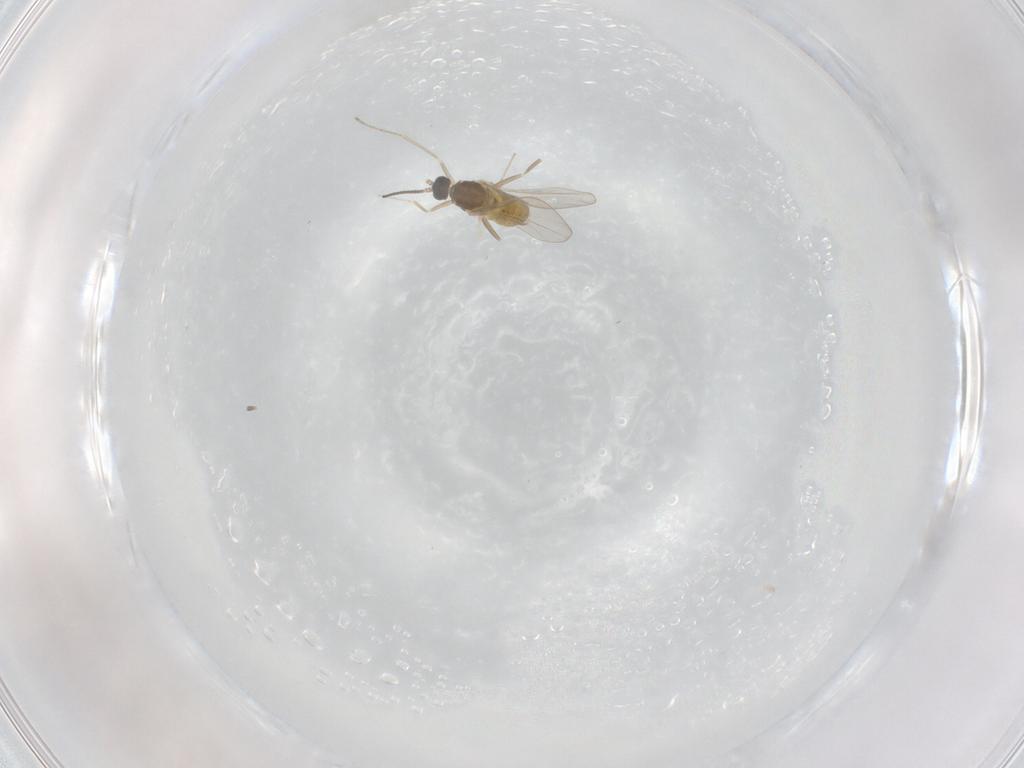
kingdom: Animalia
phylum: Arthropoda
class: Insecta
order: Diptera
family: Cecidomyiidae
